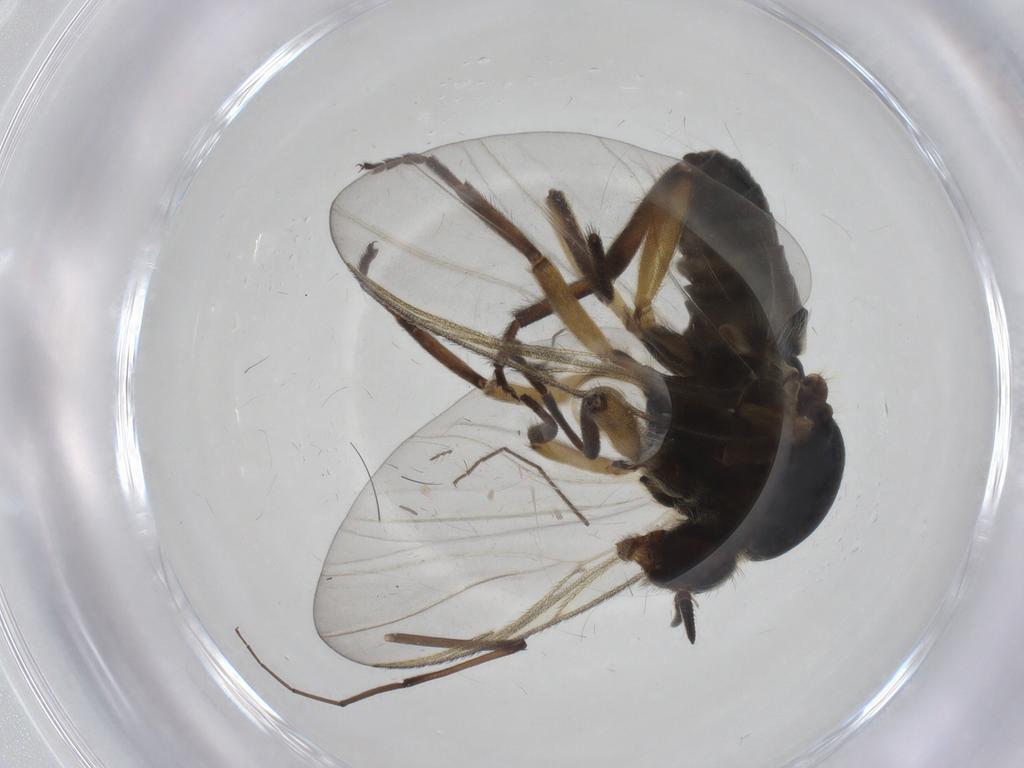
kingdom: Animalia
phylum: Arthropoda
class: Insecta
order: Diptera
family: Chironomidae
